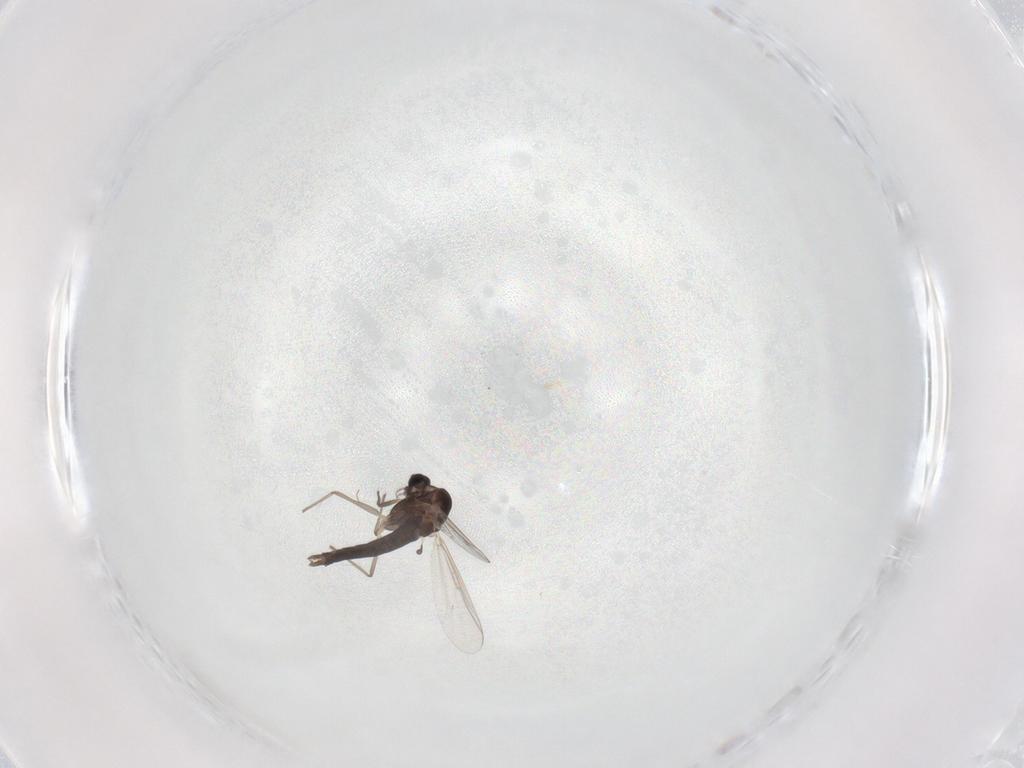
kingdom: Animalia
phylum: Arthropoda
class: Insecta
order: Diptera
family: Chironomidae
